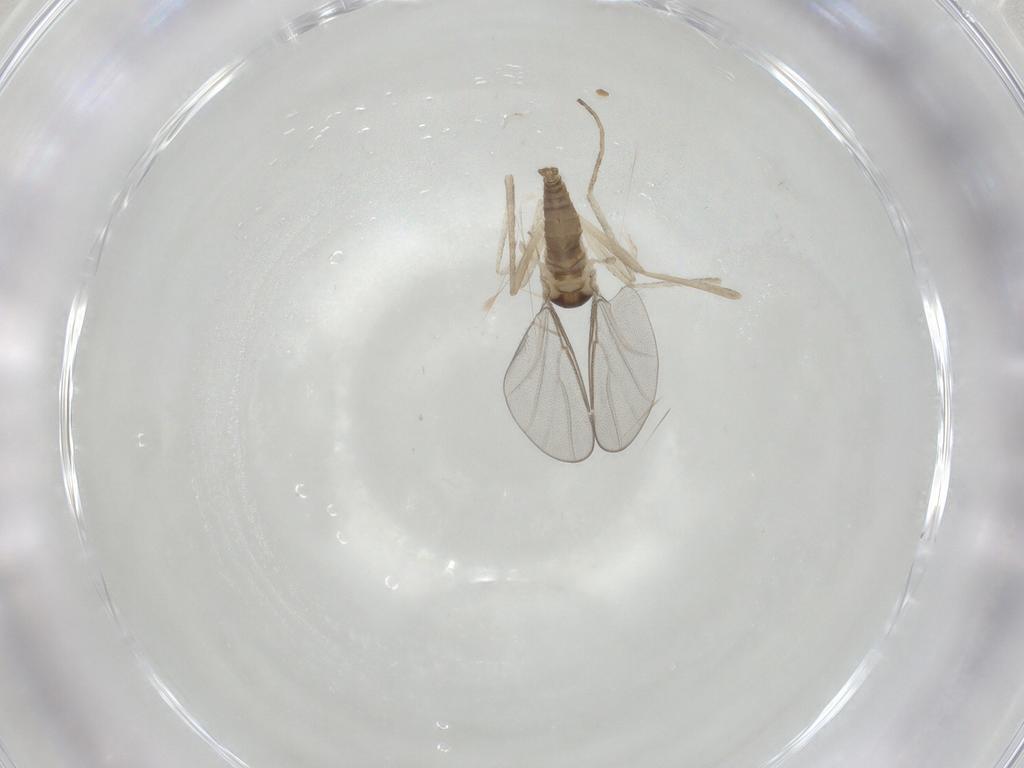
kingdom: Animalia
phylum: Arthropoda
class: Insecta
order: Diptera
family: Cecidomyiidae
